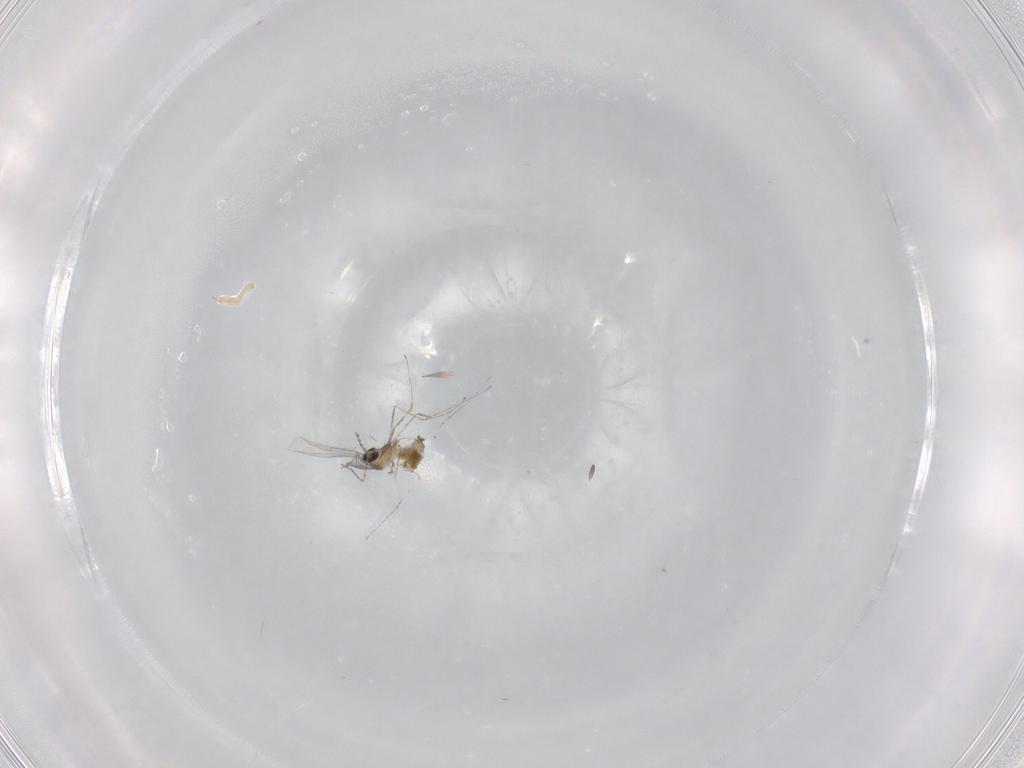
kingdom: Animalia
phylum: Arthropoda
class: Insecta
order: Diptera
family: Cecidomyiidae
